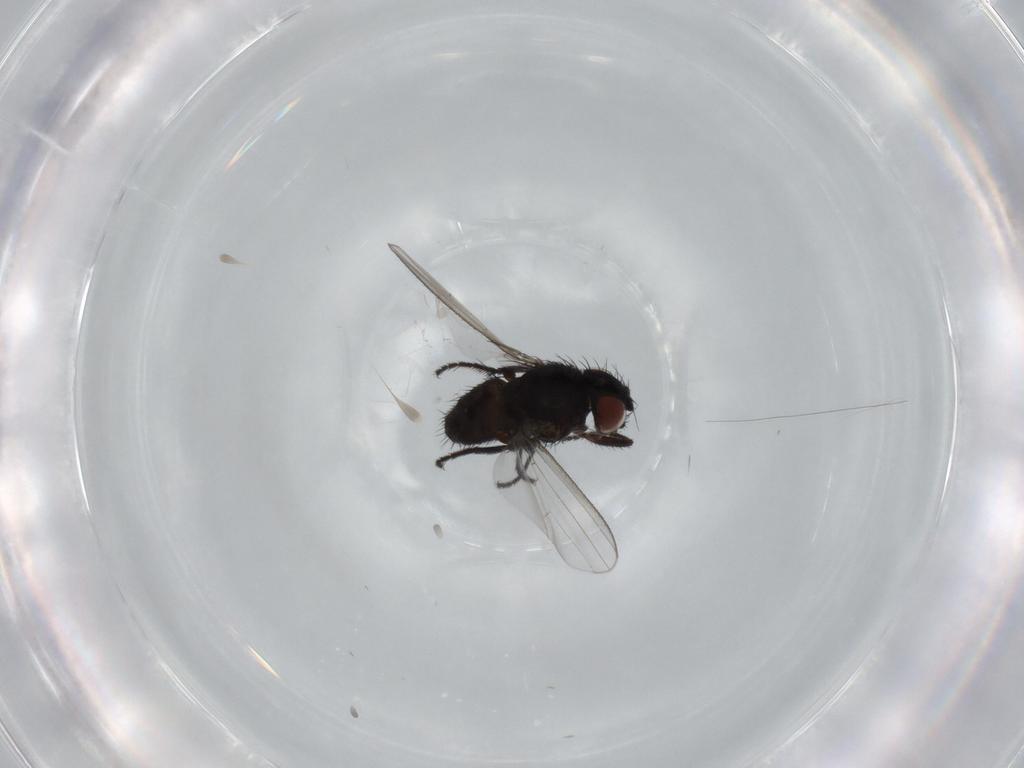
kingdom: Animalia
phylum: Arthropoda
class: Insecta
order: Diptera
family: Milichiidae
